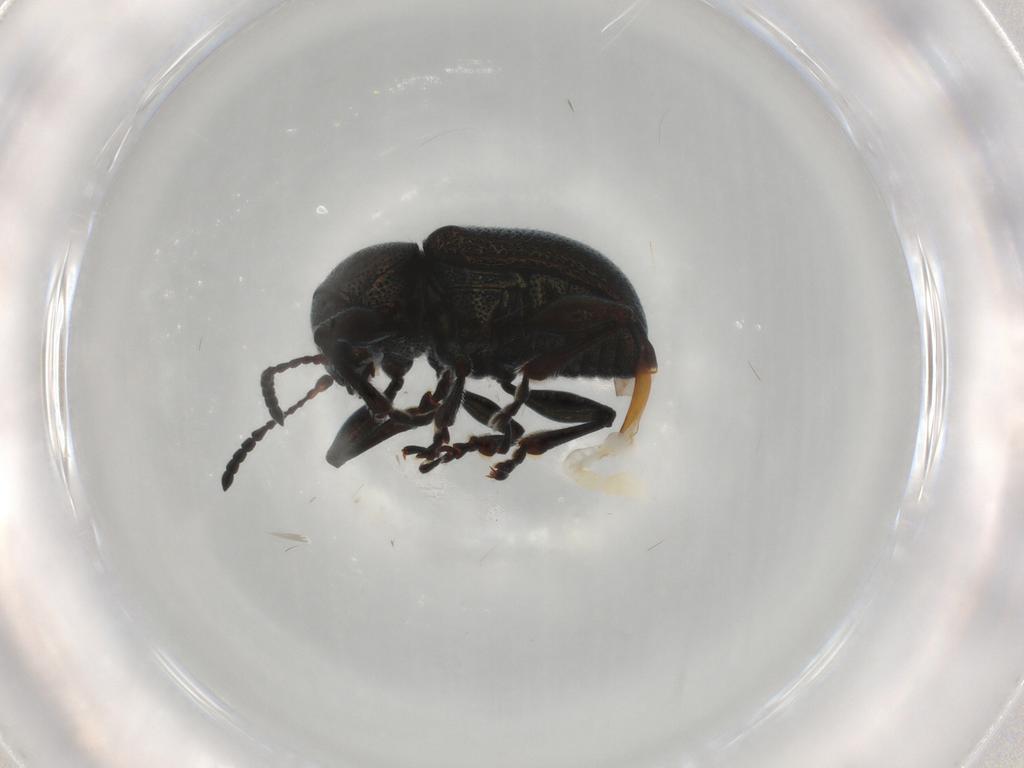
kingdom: Animalia
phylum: Arthropoda
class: Insecta
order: Coleoptera
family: Chrysomelidae
